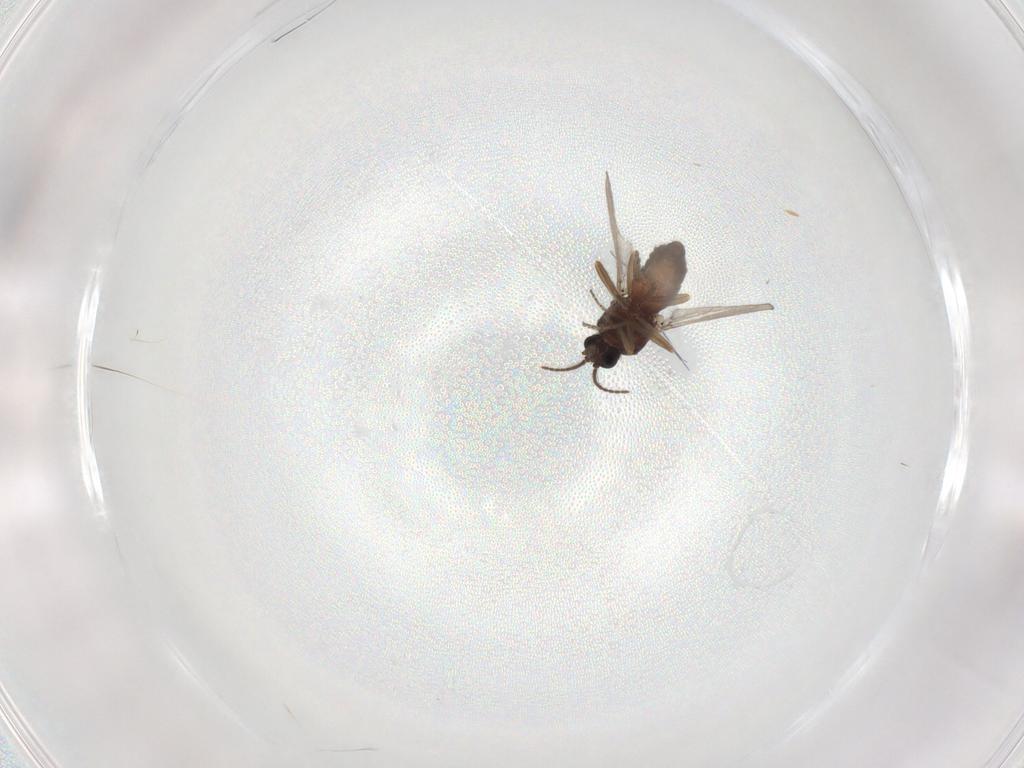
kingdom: Animalia
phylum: Arthropoda
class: Insecta
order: Diptera
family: Ceratopogonidae
